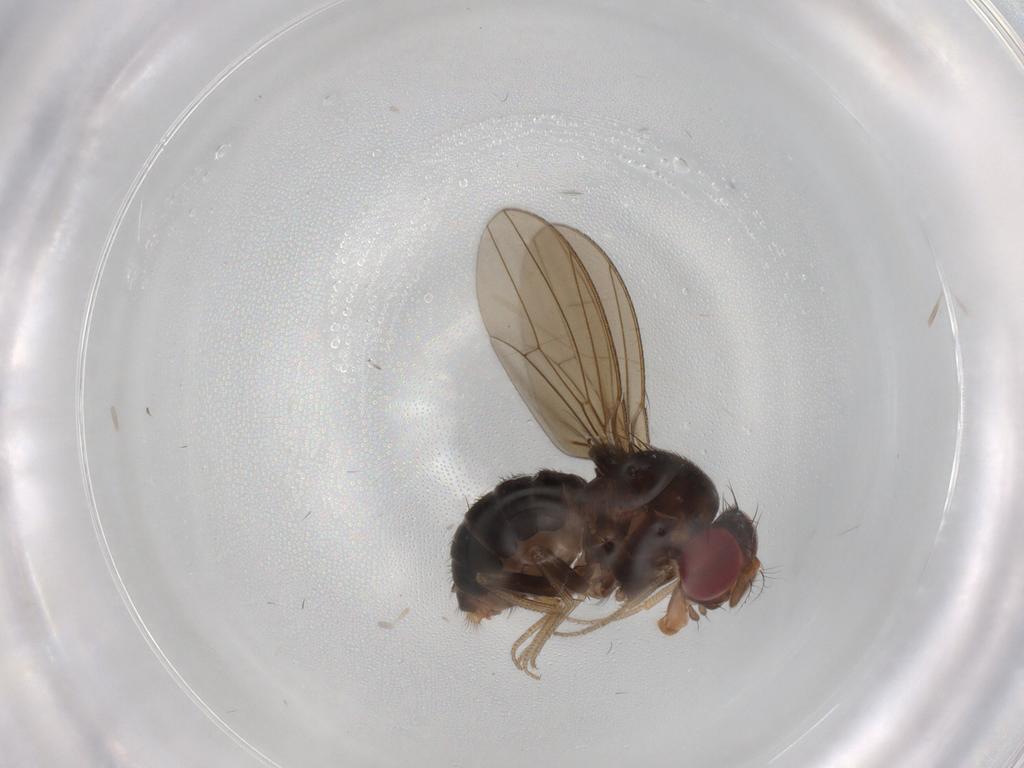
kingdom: Animalia
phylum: Arthropoda
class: Insecta
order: Diptera
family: Drosophilidae
